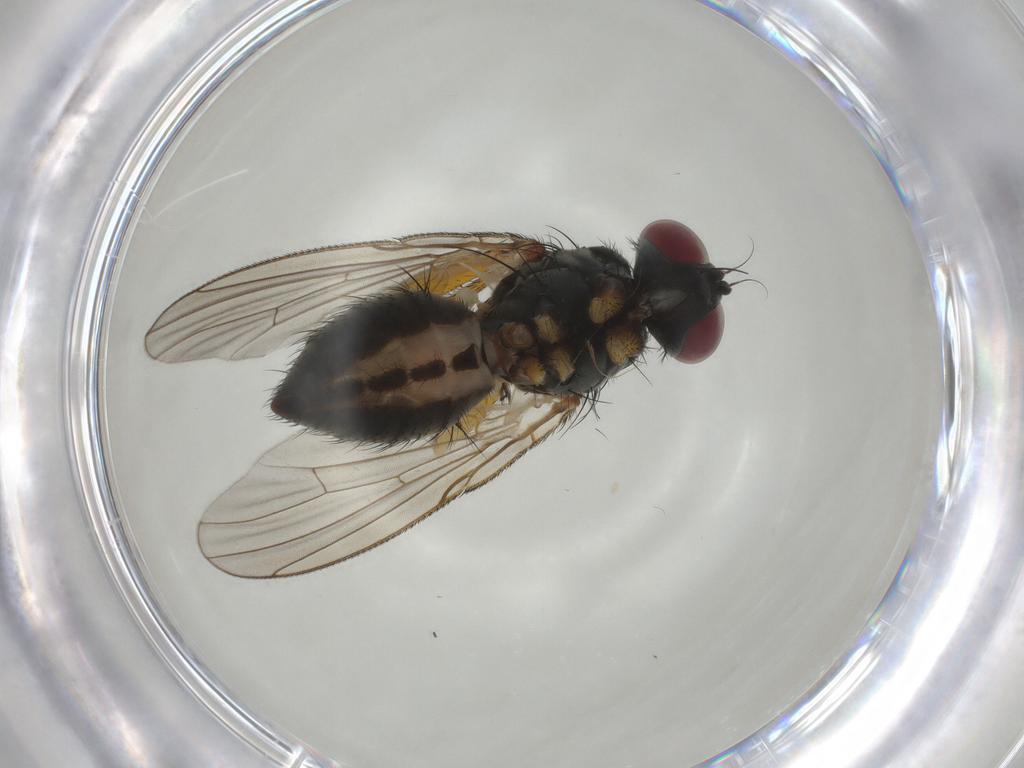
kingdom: Animalia
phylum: Arthropoda
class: Insecta
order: Diptera
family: Muscidae
